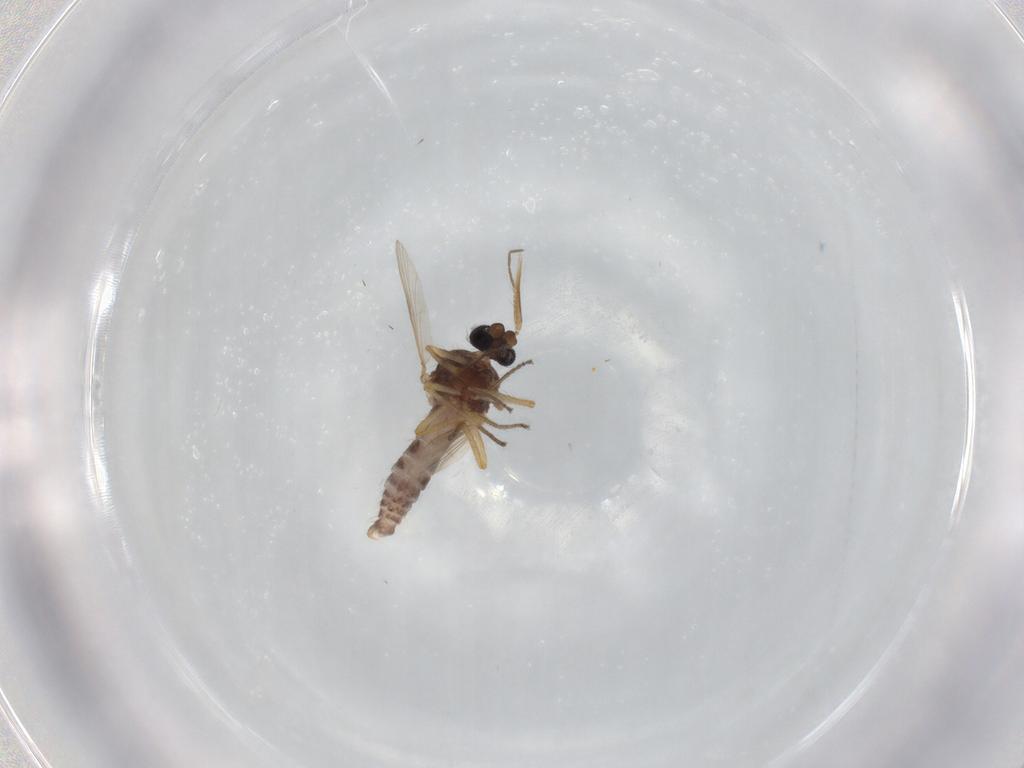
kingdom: Animalia
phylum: Arthropoda
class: Insecta
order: Diptera
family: Ceratopogonidae
